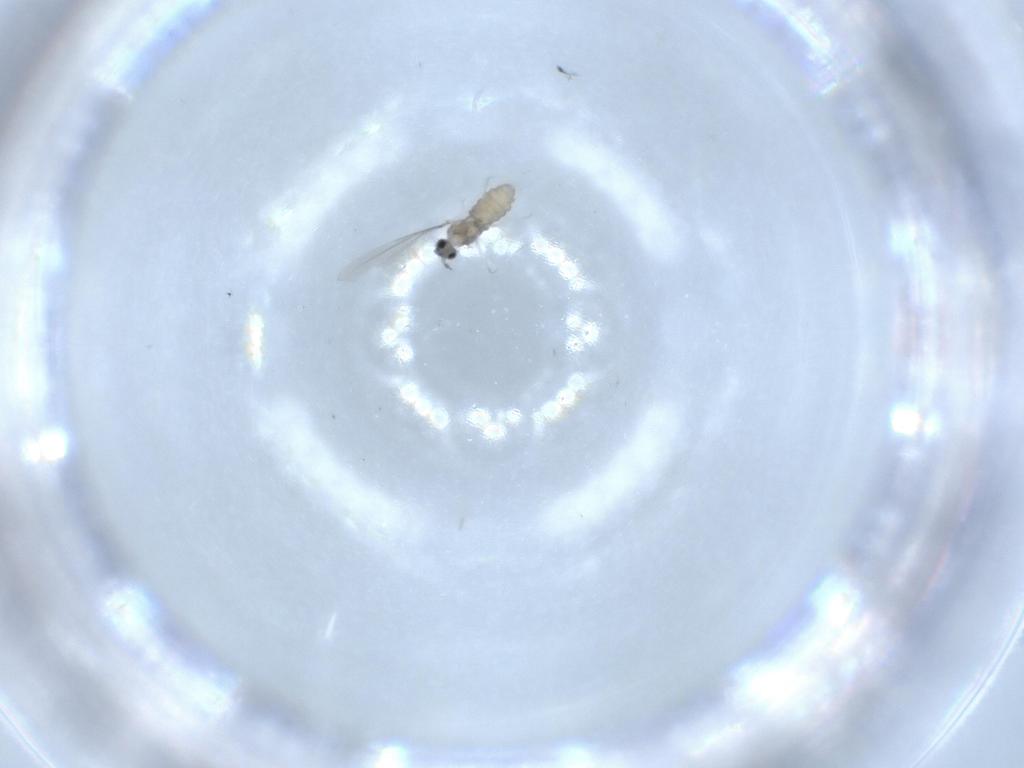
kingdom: Animalia
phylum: Arthropoda
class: Insecta
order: Diptera
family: Cecidomyiidae
